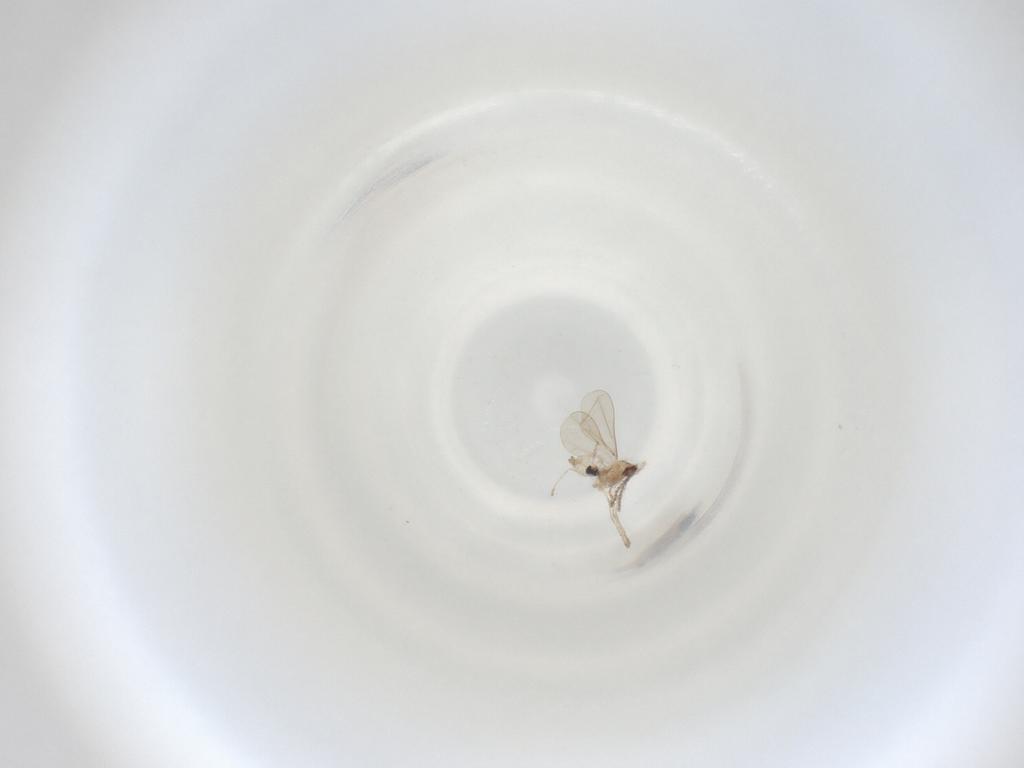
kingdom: Animalia
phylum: Arthropoda
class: Insecta
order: Diptera
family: Cecidomyiidae
